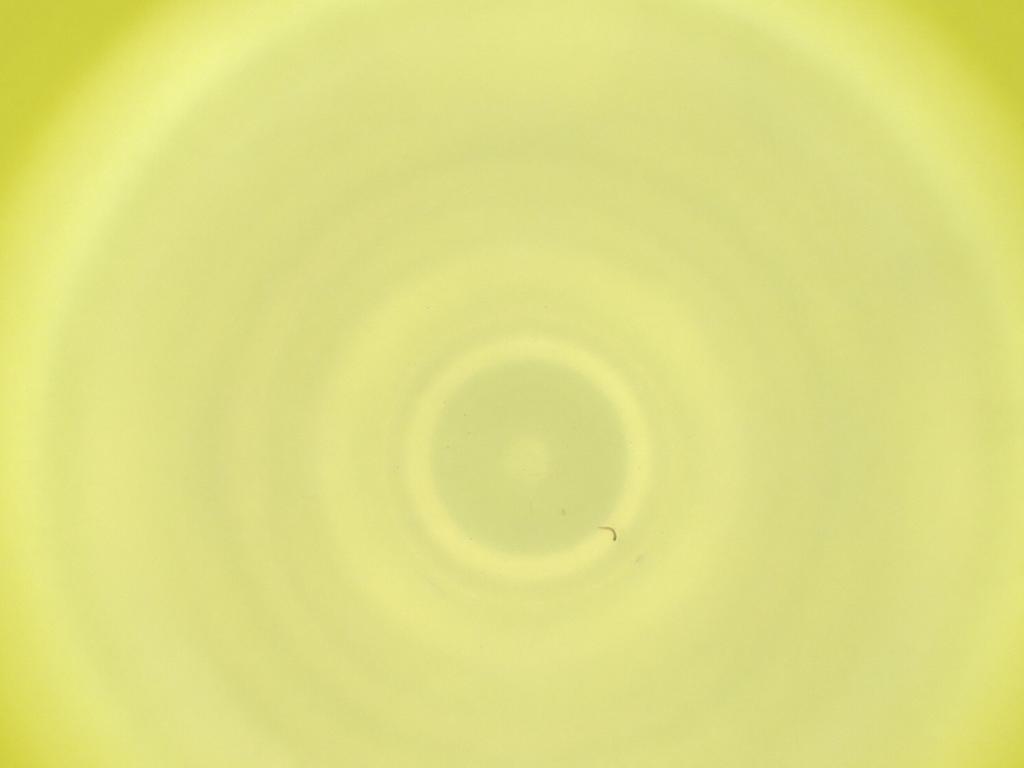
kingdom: Animalia
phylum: Arthropoda
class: Insecta
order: Diptera
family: Cecidomyiidae
